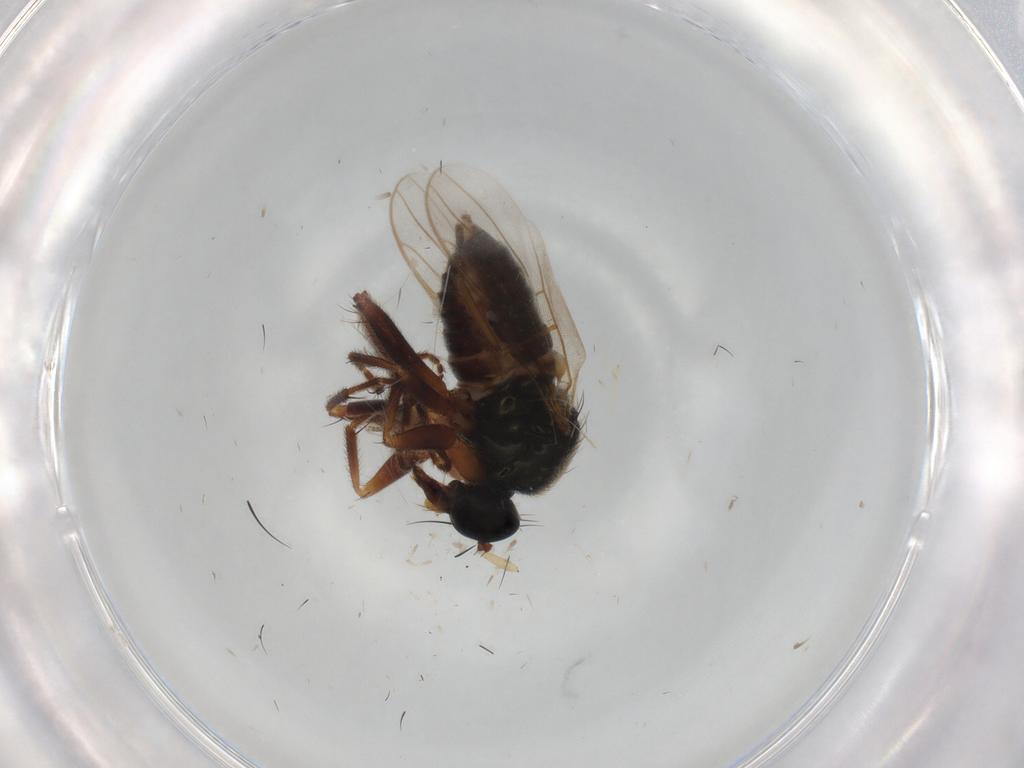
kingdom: Animalia
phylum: Arthropoda
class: Insecta
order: Diptera
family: Hybotidae
